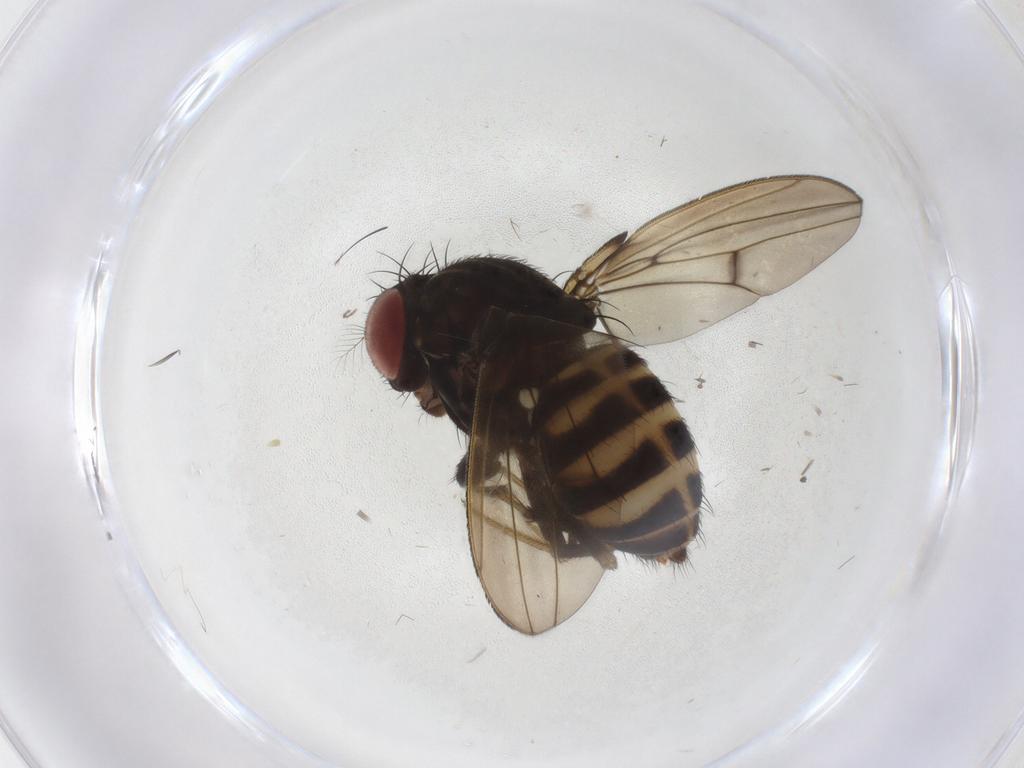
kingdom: Animalia
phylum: Arthropoda
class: Insecta
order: Diptera
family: Drosophilidae
